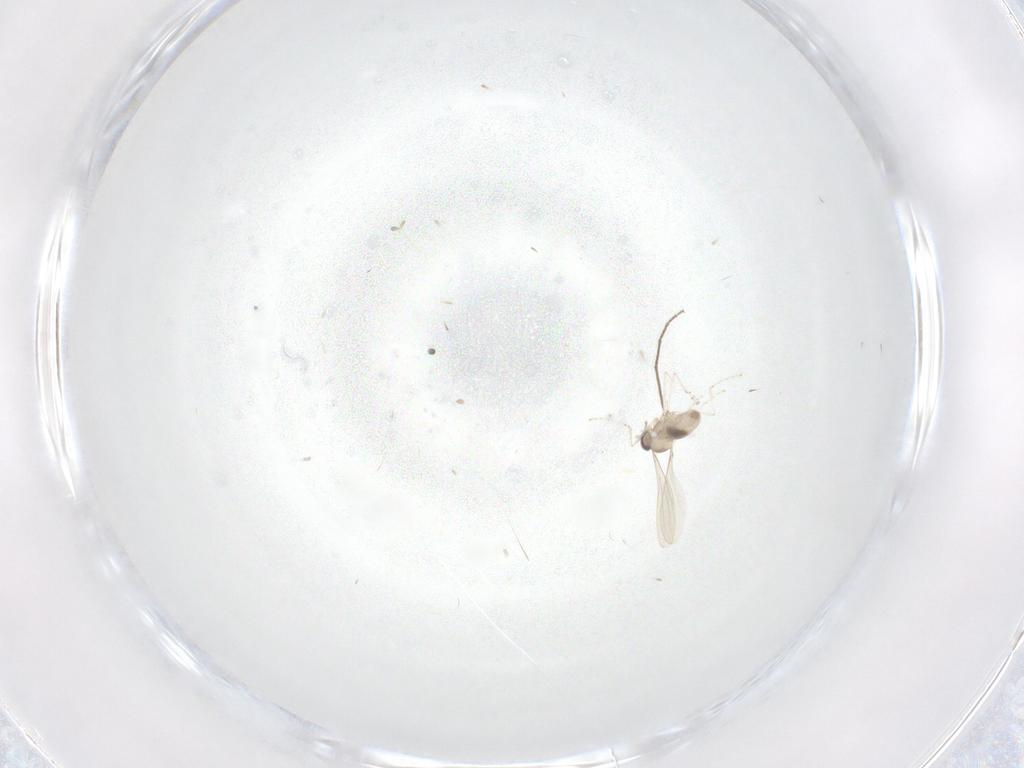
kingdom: Animalia
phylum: Arthropoda
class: Insecta
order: Diptera
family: Chironomidae
